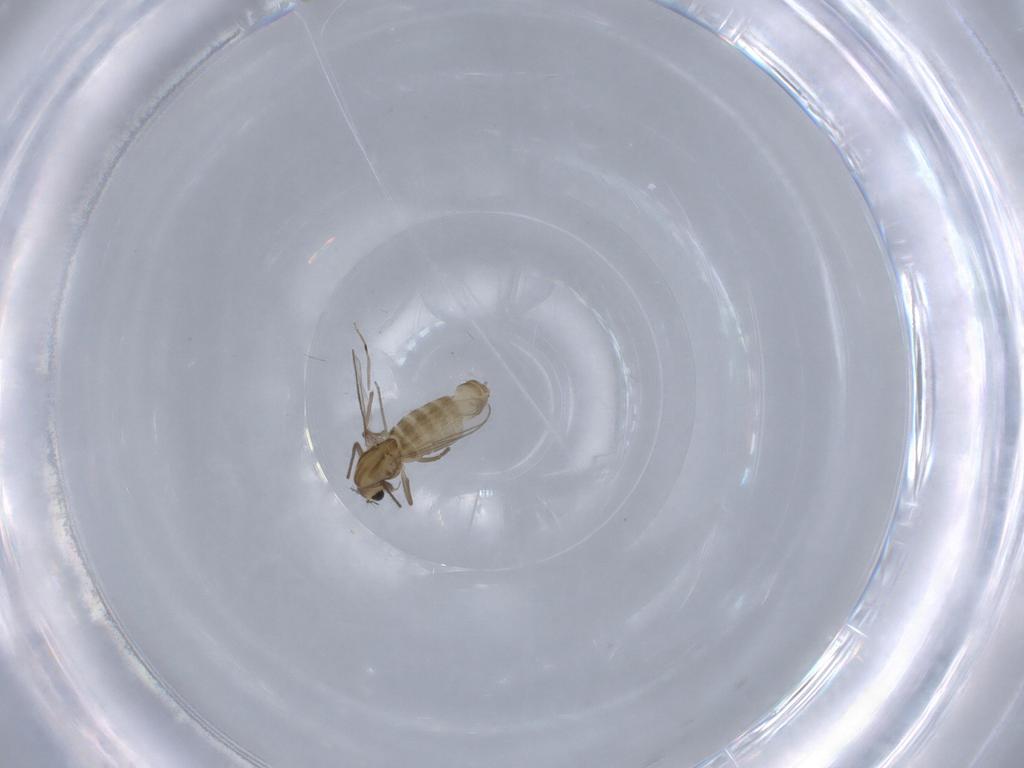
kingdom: Animalia
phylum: Arthropoda
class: Insecta
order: Diptera
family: Chironomidae
